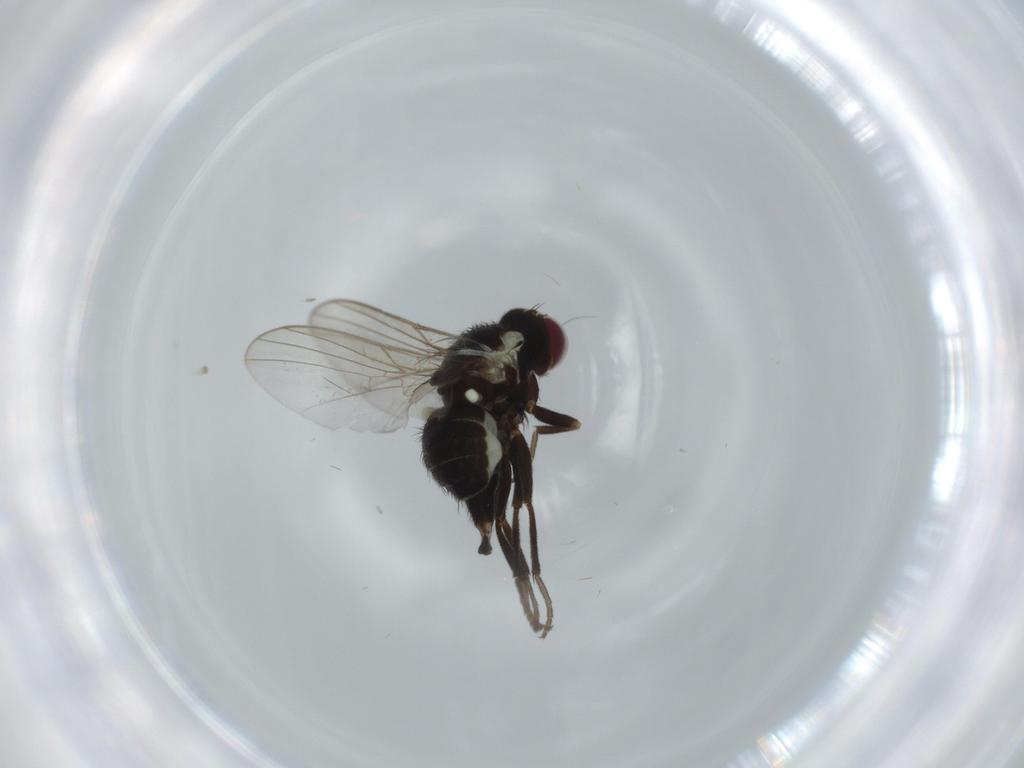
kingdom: Animalia
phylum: Arthropoda
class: Insecta
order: Diptera
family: Agromyzidae
